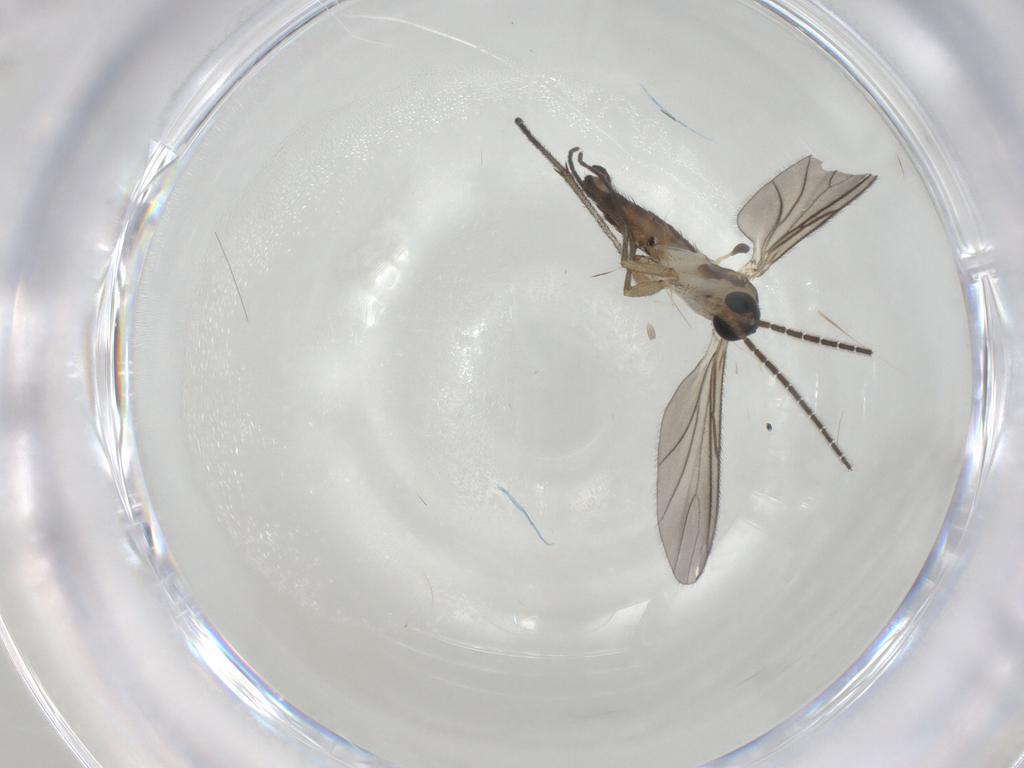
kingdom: Animalia
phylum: Arthropoda
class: Insecta
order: Diptera
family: Sciaridae
